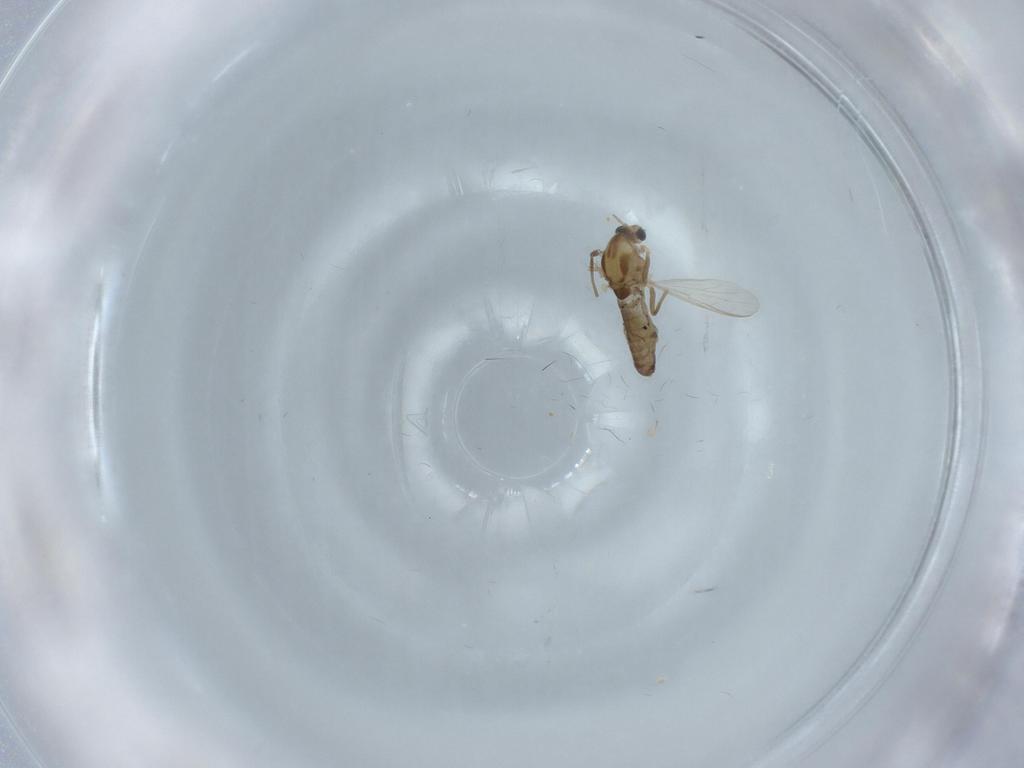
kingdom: Animalia
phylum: Arthropoda
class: Insecta
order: Diptera
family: Chironomidae
